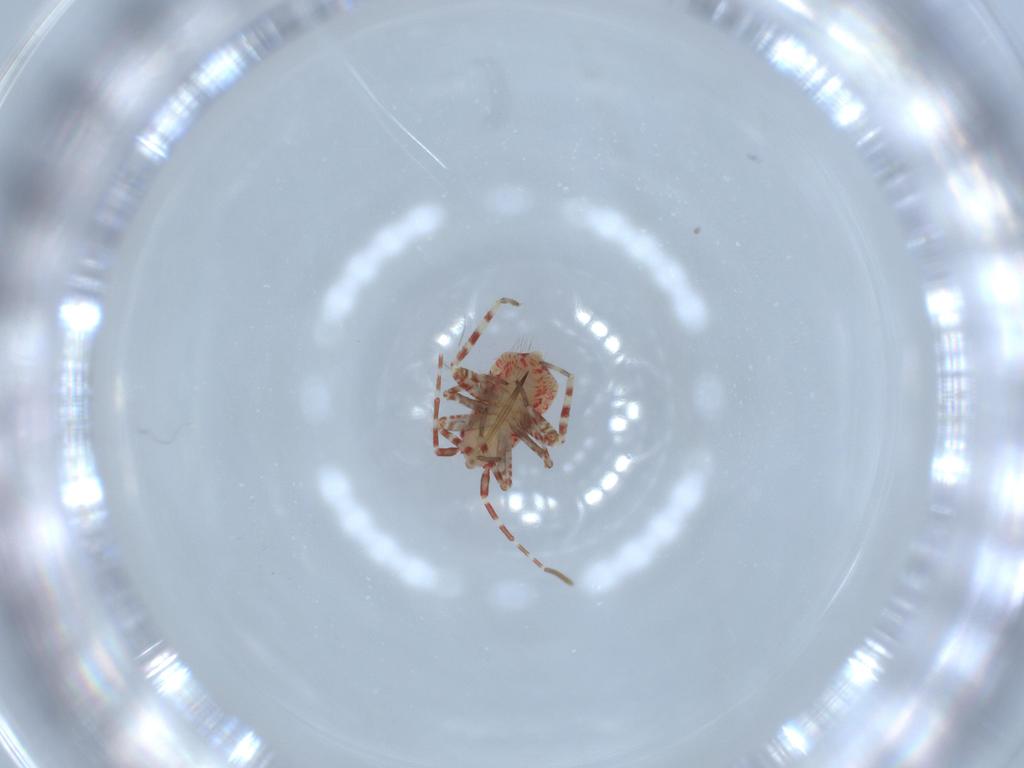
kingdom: Animalia
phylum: Arthropoda
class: Insecta
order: Hemiptera
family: Miridae
